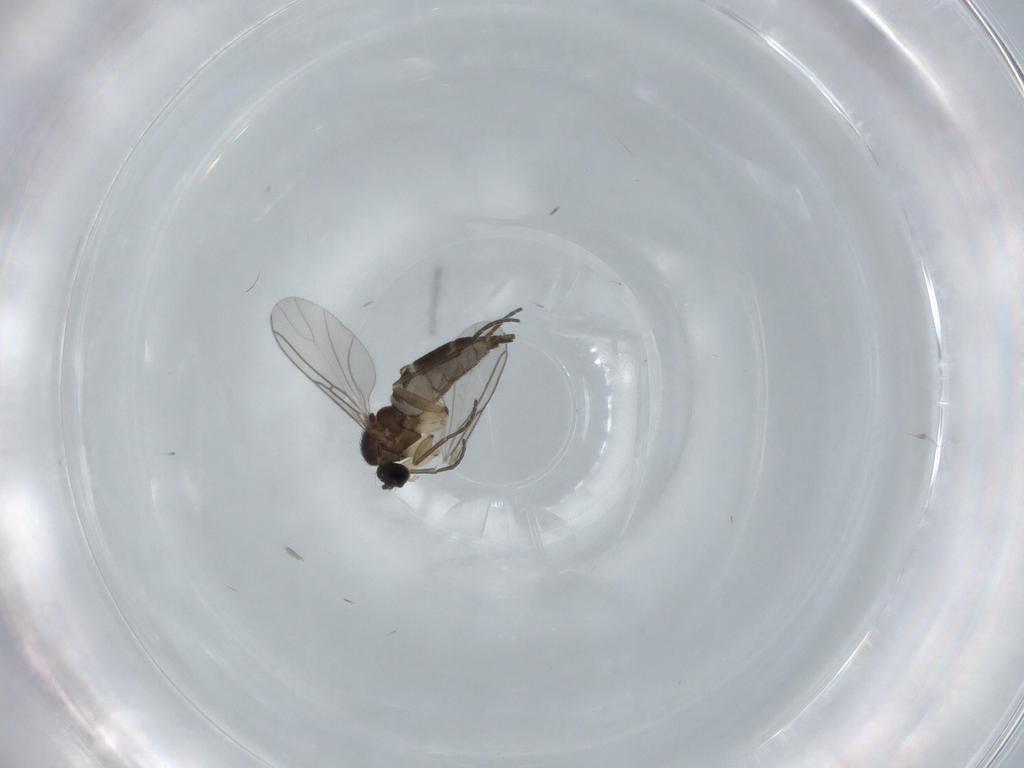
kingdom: Animalia
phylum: Arthropoda
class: Insecta
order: Diptera
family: Sciaridae
